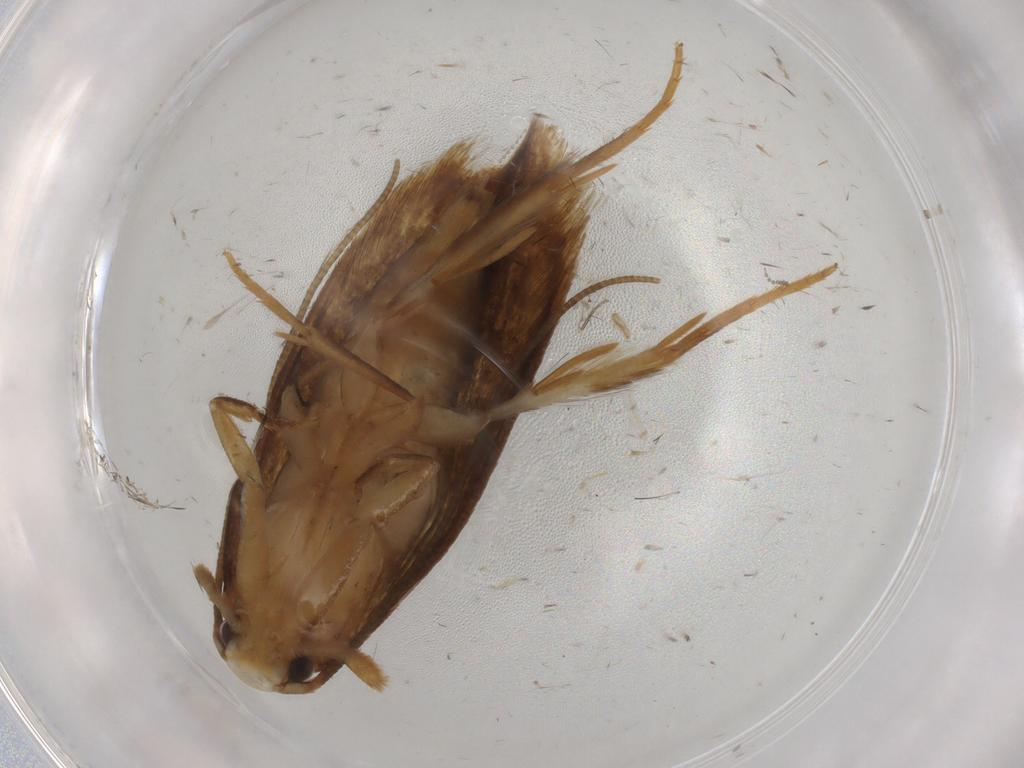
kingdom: Animalia
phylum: Arthropoda
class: Insecta
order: Lepidoptera
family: Tineidae
